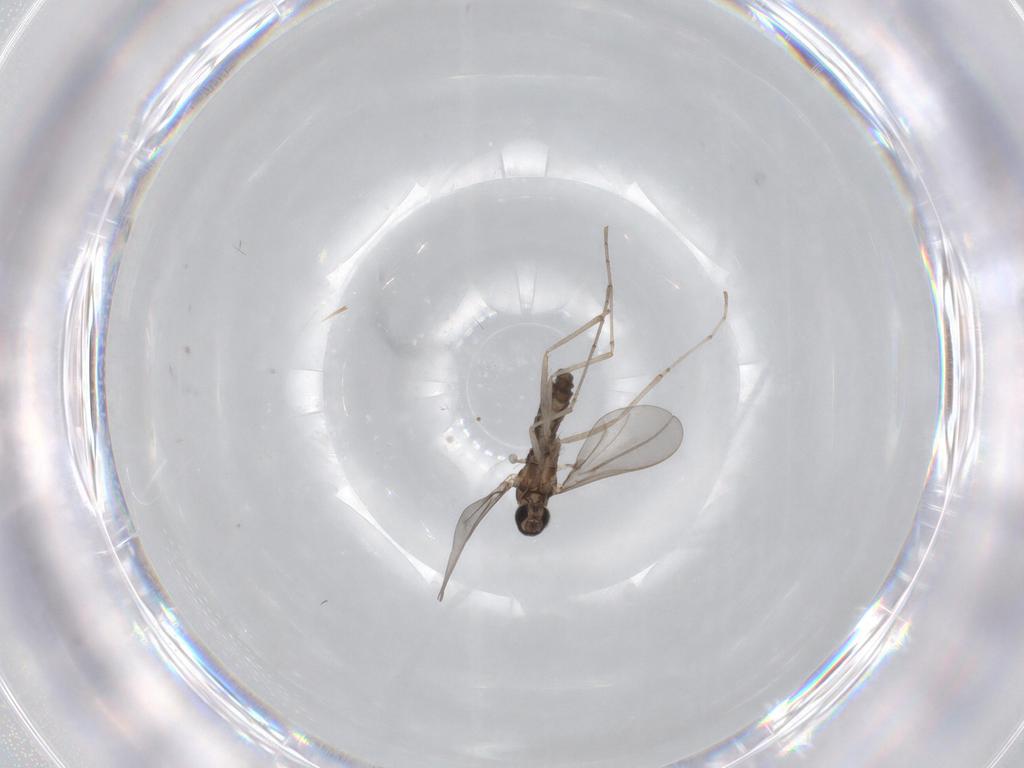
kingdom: Animalia
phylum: Arthropoda
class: Insecta
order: Diptera
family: Cecidomyiidae
